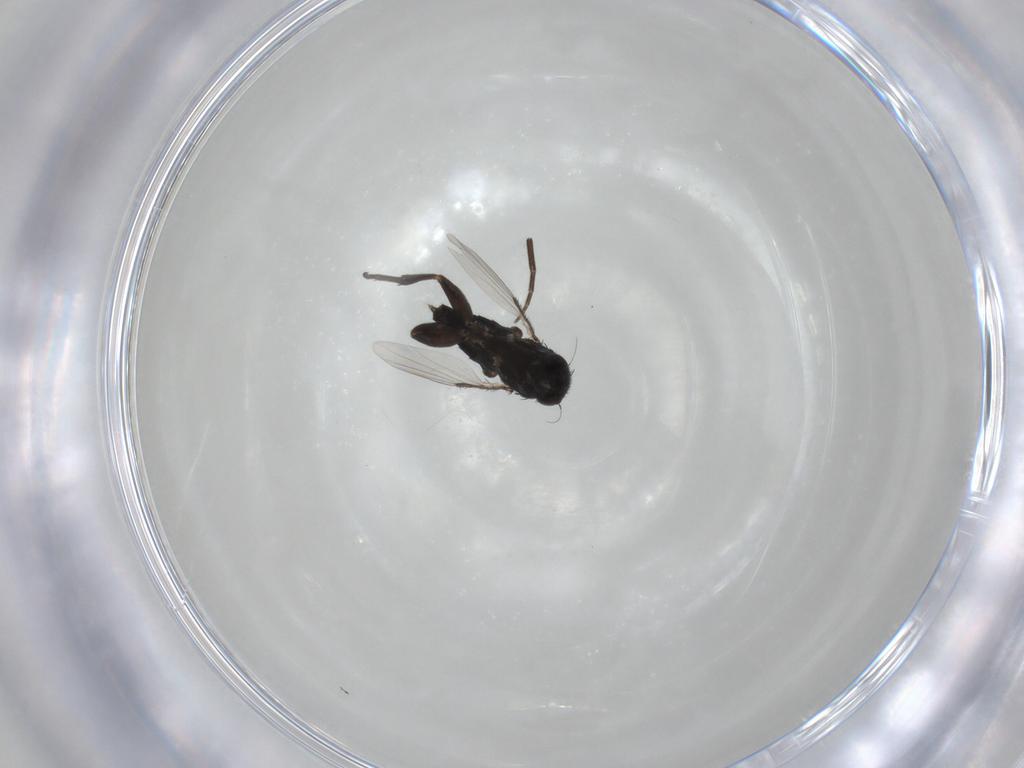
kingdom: Animalia
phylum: Arthropoda
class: Insecta
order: Diptera
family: Phoridae
